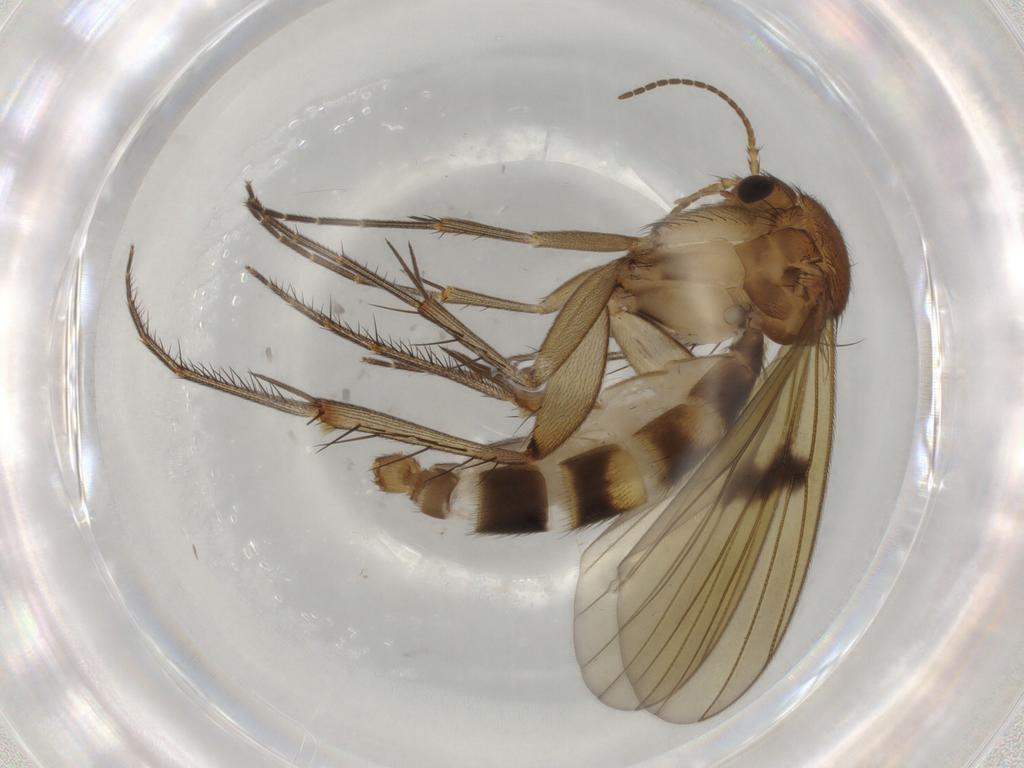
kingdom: Animalia
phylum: Arthropoda
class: Insecta
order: Diptera
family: Mycetophilidae
